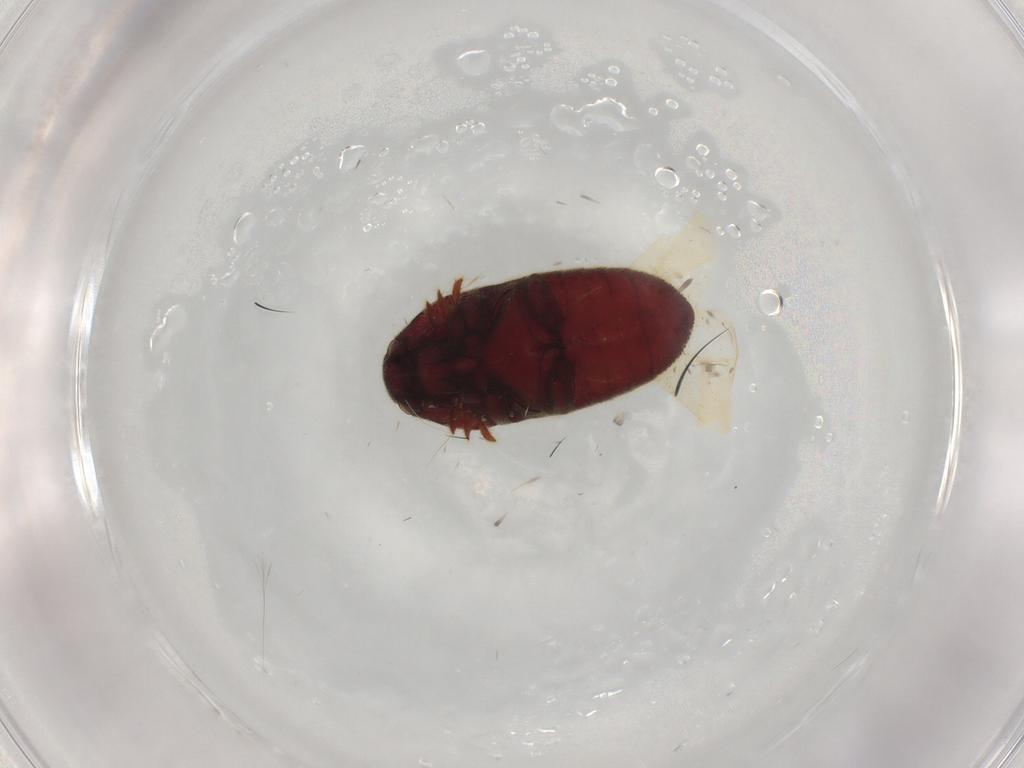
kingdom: Animalia
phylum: Arthropoda
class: Insecta
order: Coleoptera
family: Throscidae
